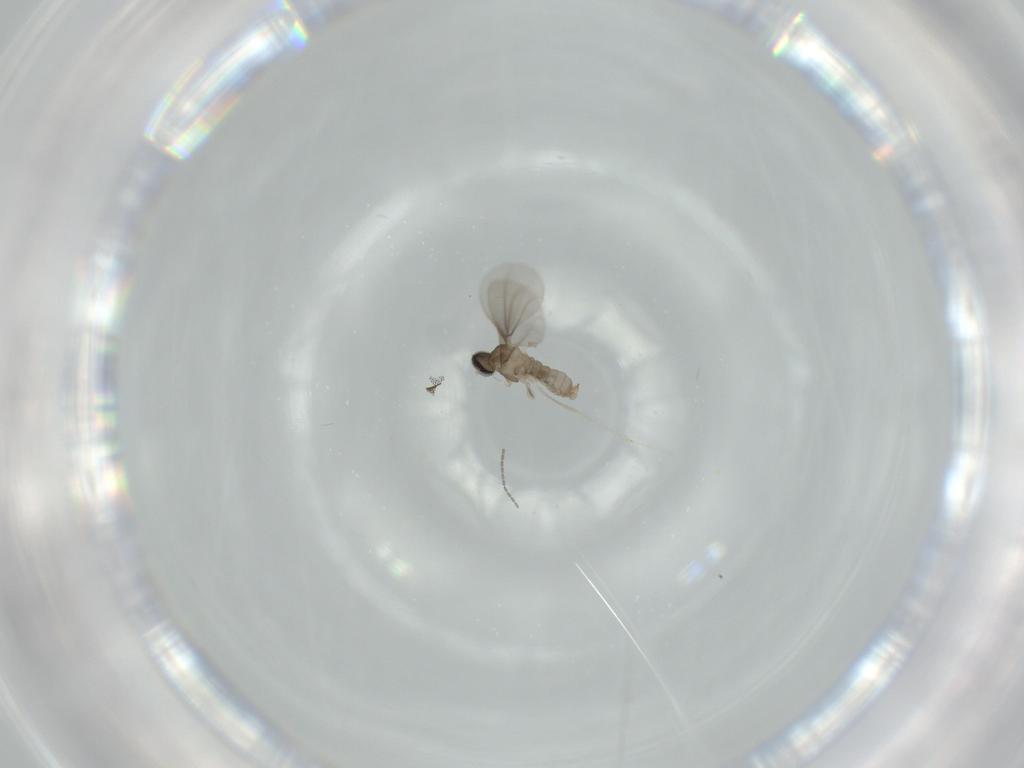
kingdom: Animalia
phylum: Arthropoda
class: Insecta
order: Diptera
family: Cecidomyiidae
